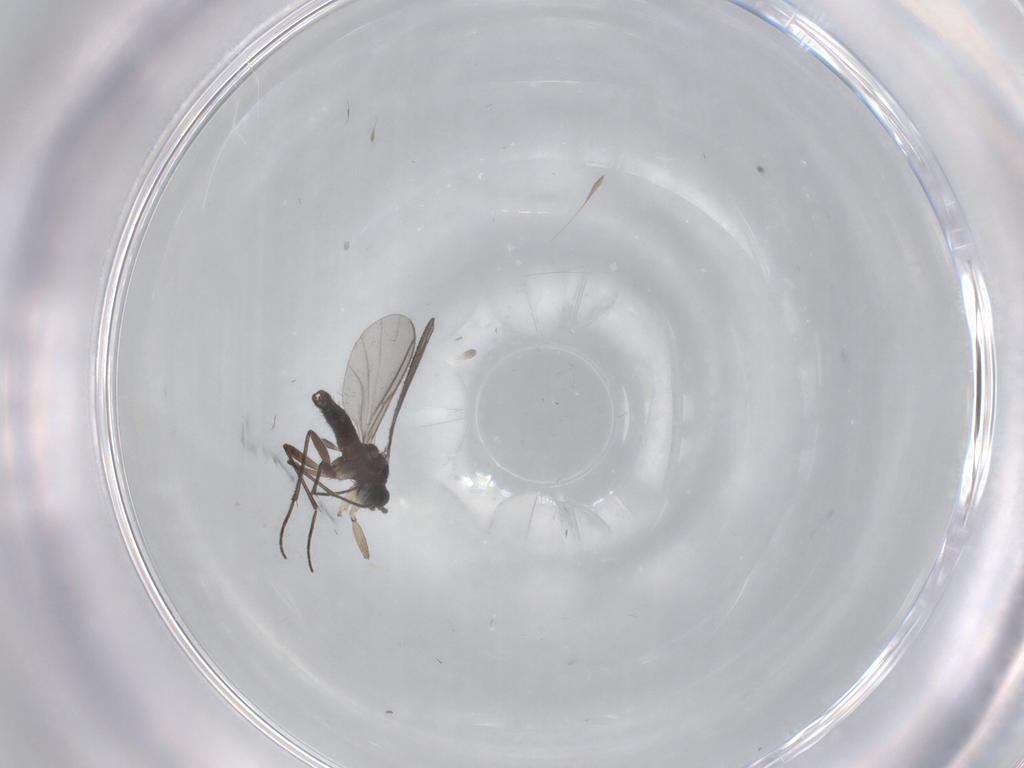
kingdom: Animalia
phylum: Arthropoda
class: Insecta
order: Diptera
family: Sciaridae
